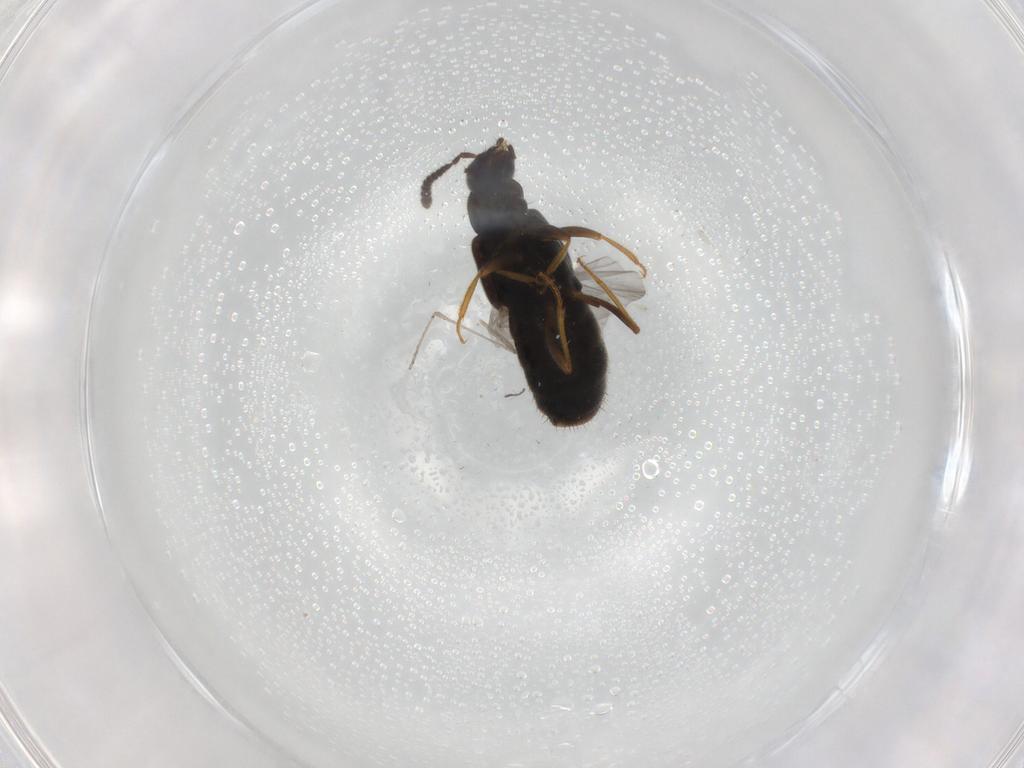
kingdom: Animalia
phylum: Arthropoda
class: Insecta
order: Coleoptera
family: Staphylinidae
